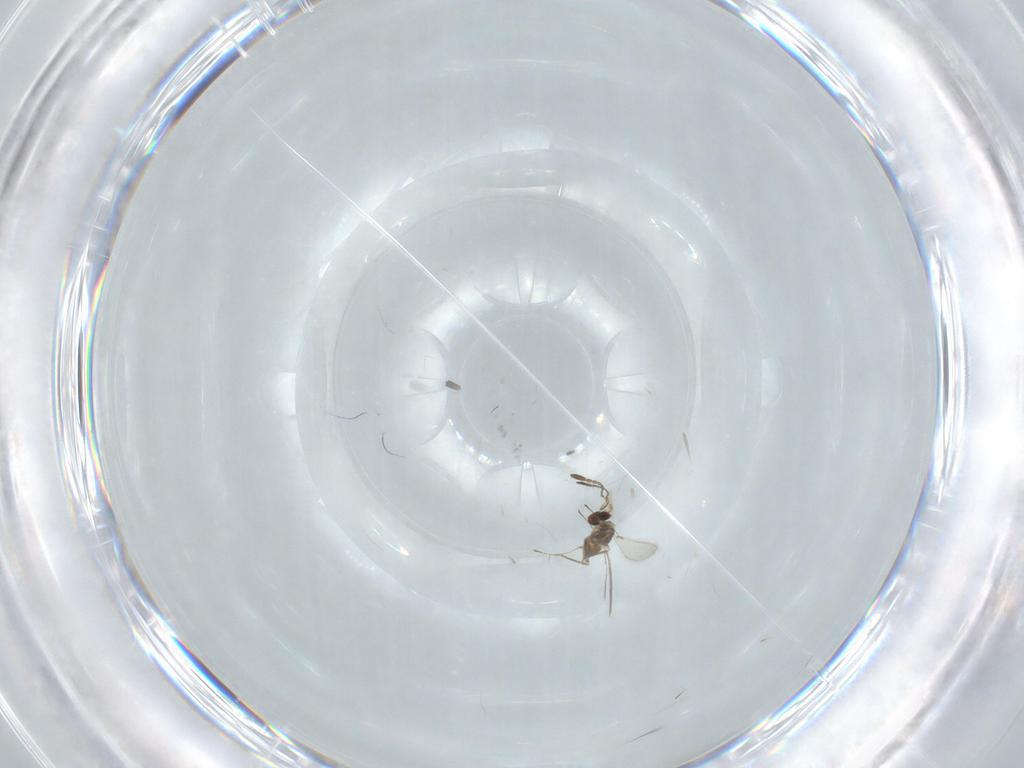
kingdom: Animalia
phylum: Arthropoda
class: Insecta
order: Hymenoptera
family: Mymaridae
